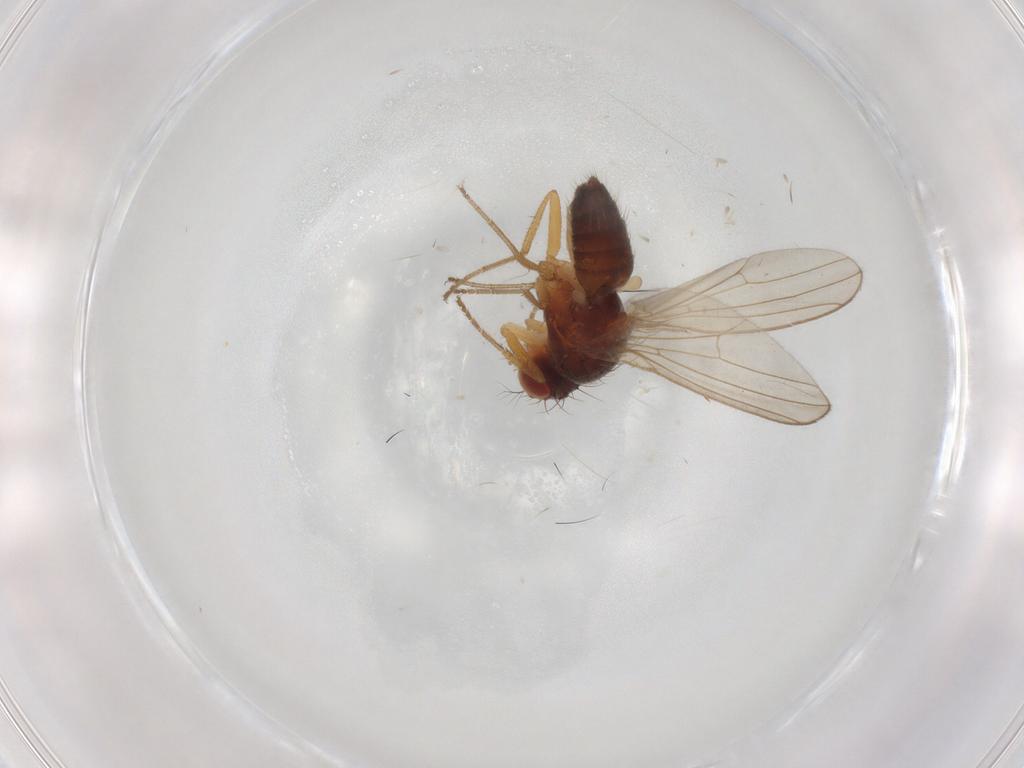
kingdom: Animalia
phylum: Arthropoda
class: Insecta
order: Diptera
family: Drosophilidae
